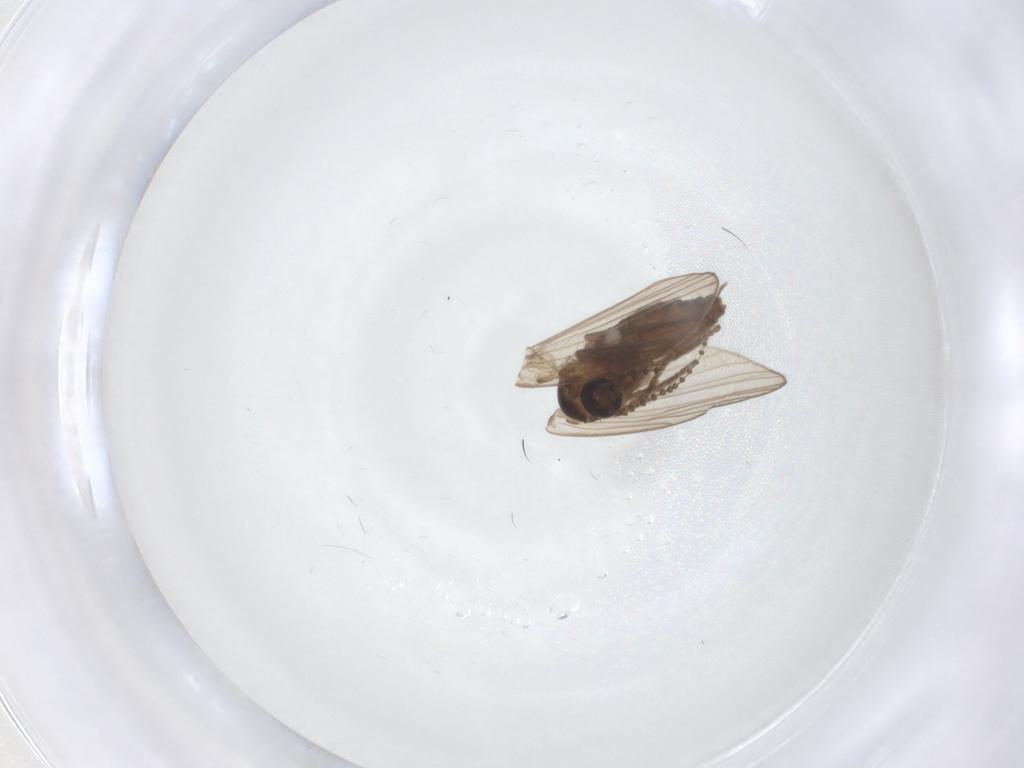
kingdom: Animalia
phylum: Arthropoda
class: Insecta
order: Diptera
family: Psychodidae
